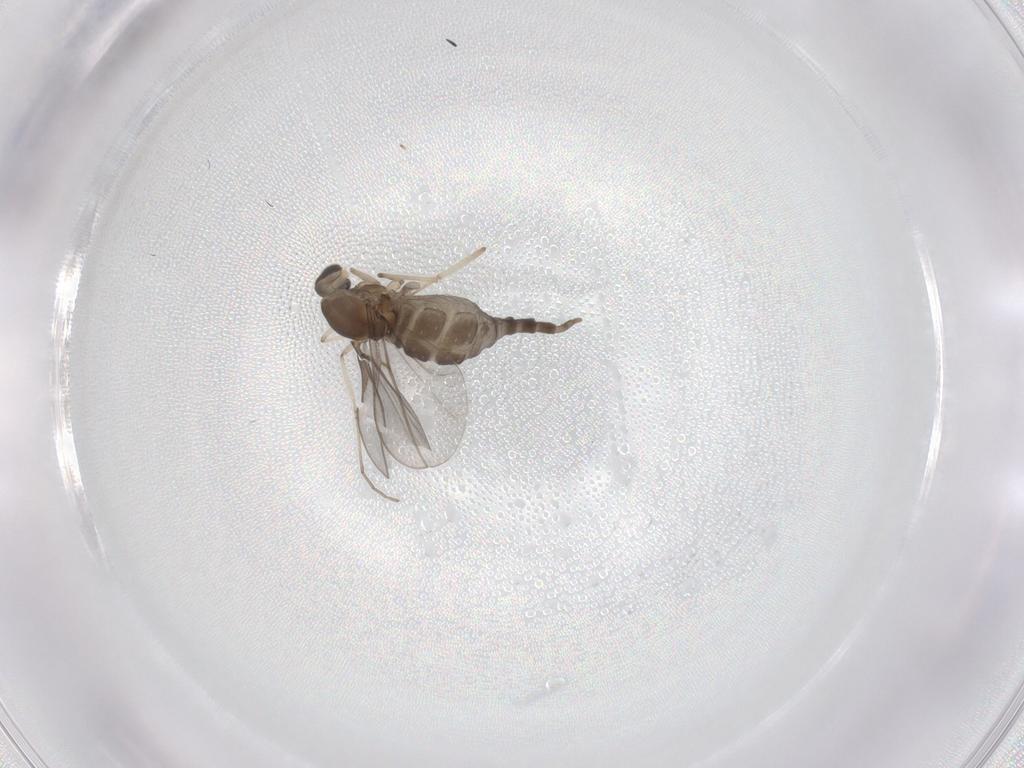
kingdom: Animalia
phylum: Arthropoda
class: Insecta
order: Diptera
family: Cecidomyiidae
